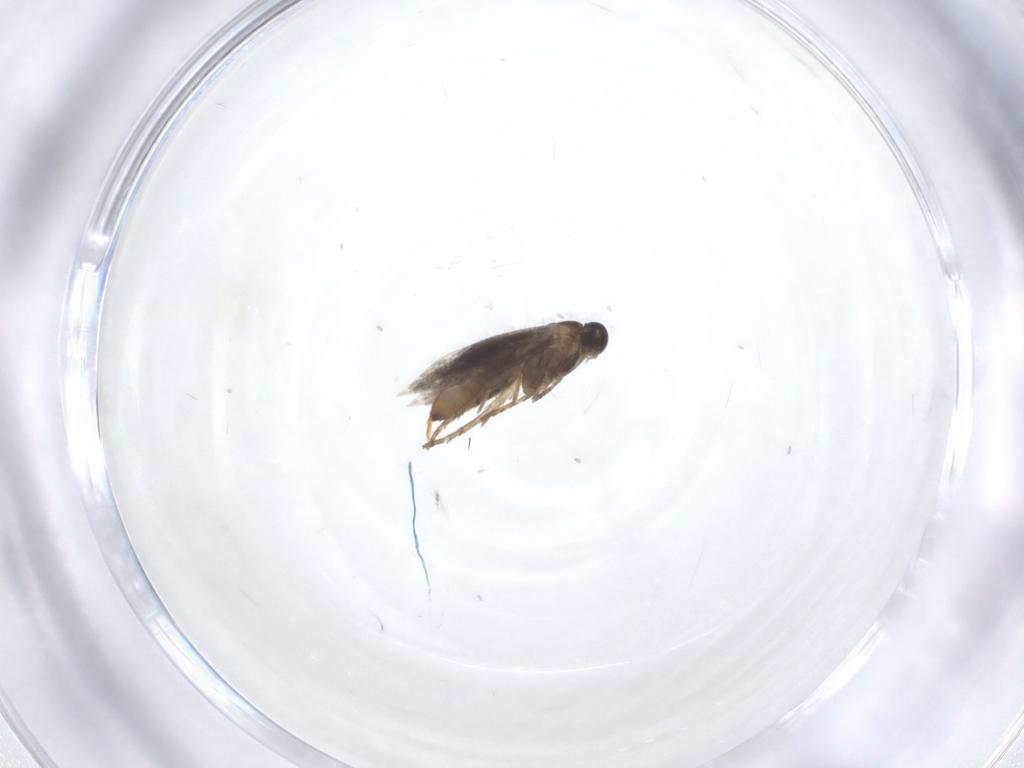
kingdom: Animalia
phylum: Arthropoda
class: Insecta
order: Lepidoptera
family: Heliozelidae
